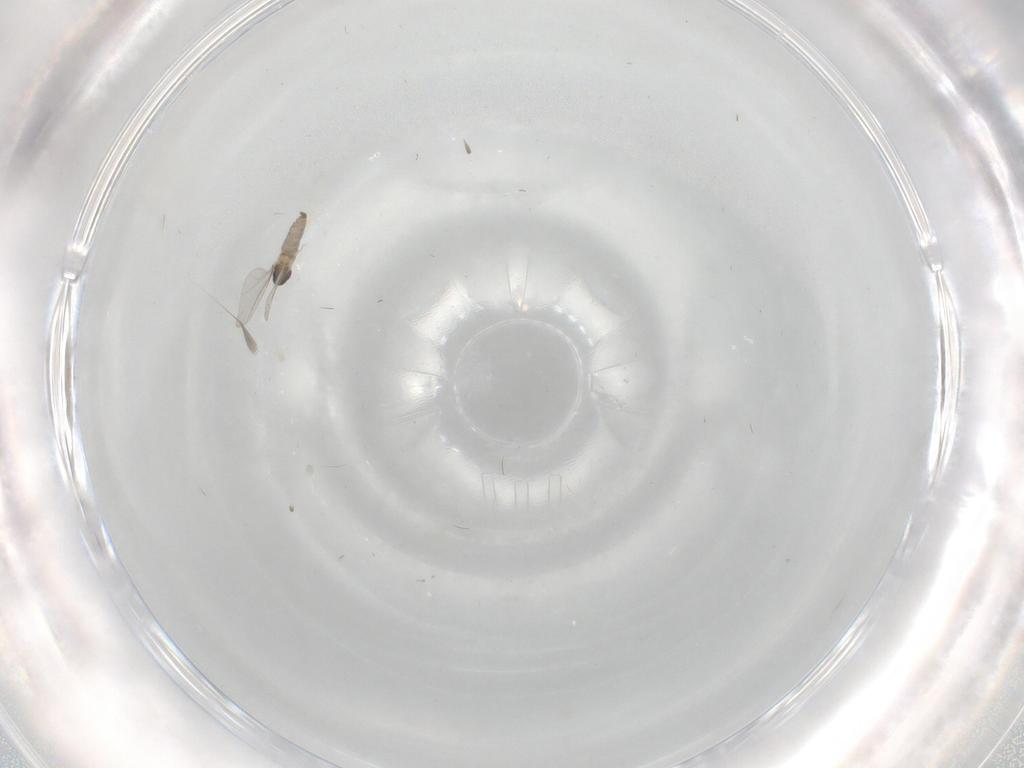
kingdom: Animalia
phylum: Arthropoda
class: Insecta
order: Diptera
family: Cecidomyiidae
